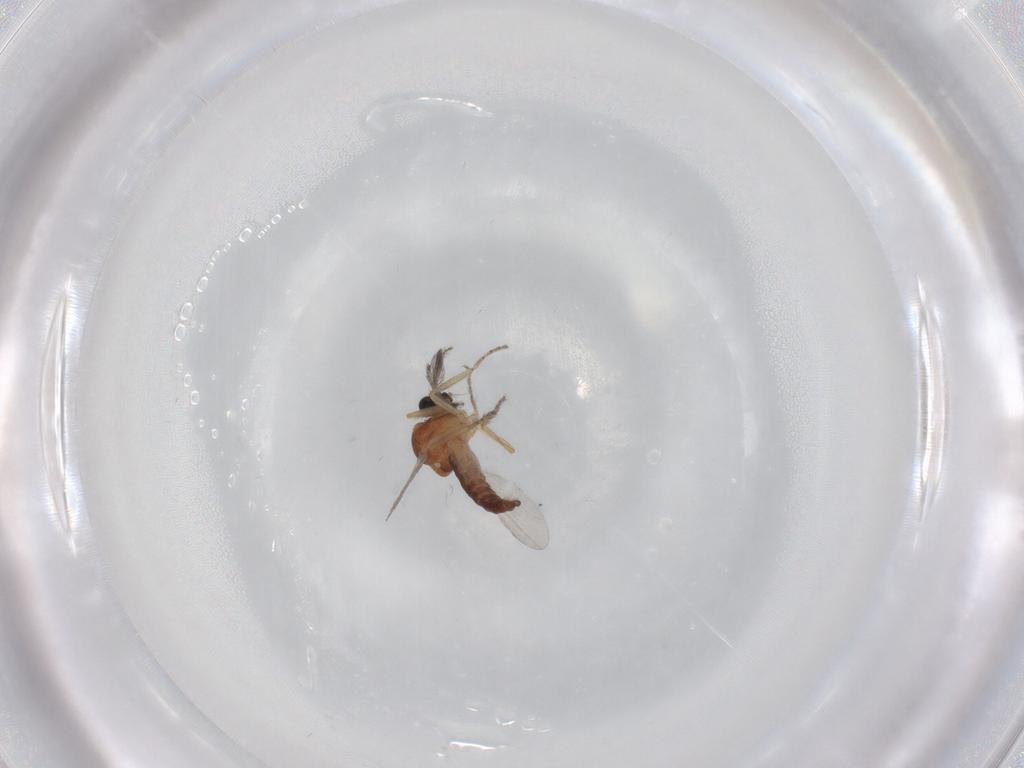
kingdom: Animalia
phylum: Arthropoda
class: Insecta
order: Diptera
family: Ceratopogonidae
